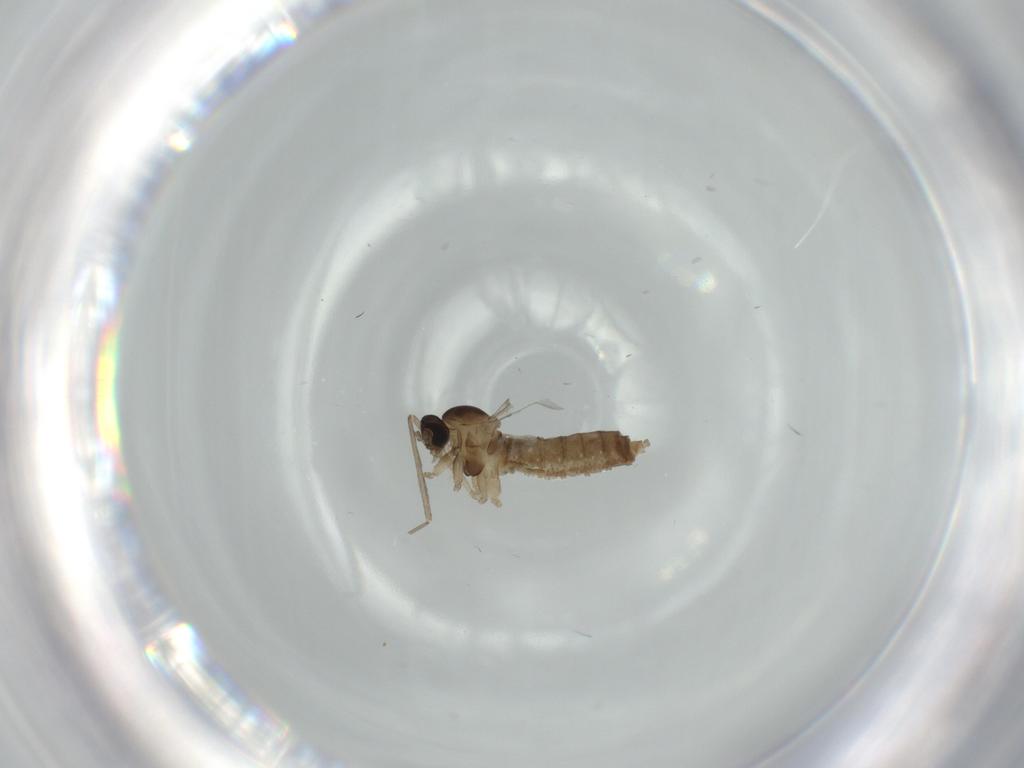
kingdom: Animalia
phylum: Arthropoda
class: Insecta
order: Diptera
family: Cecidomyiidae
